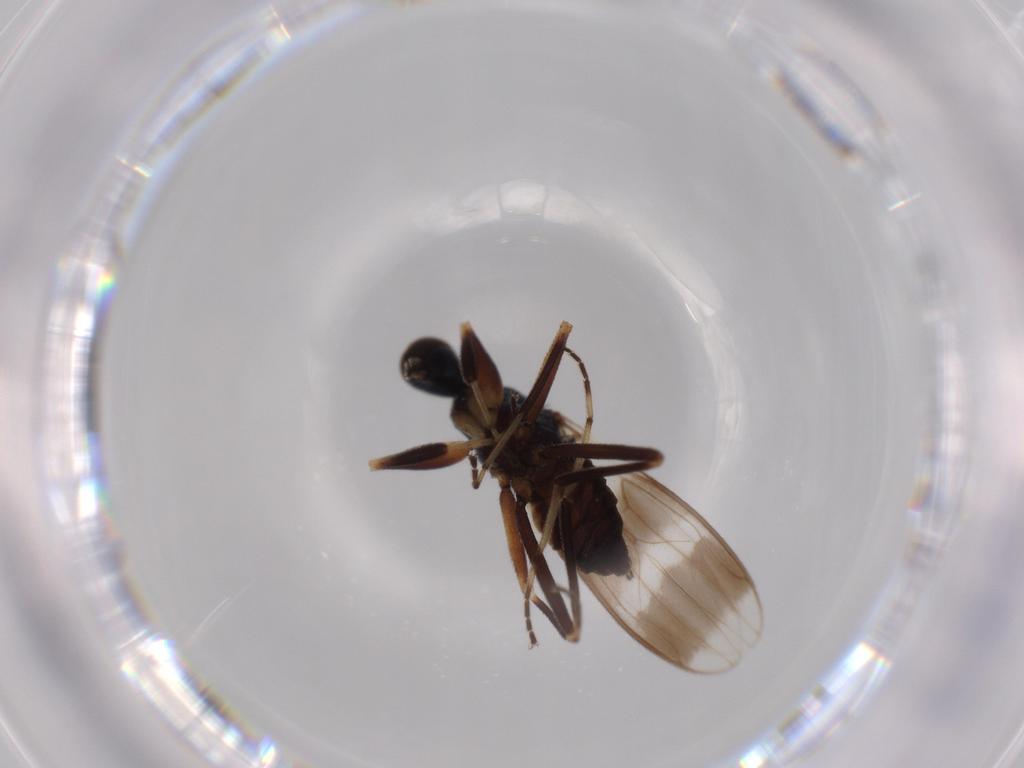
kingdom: Animalia
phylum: Arthropoda
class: Insecta
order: Diptera
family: Hybotidae
